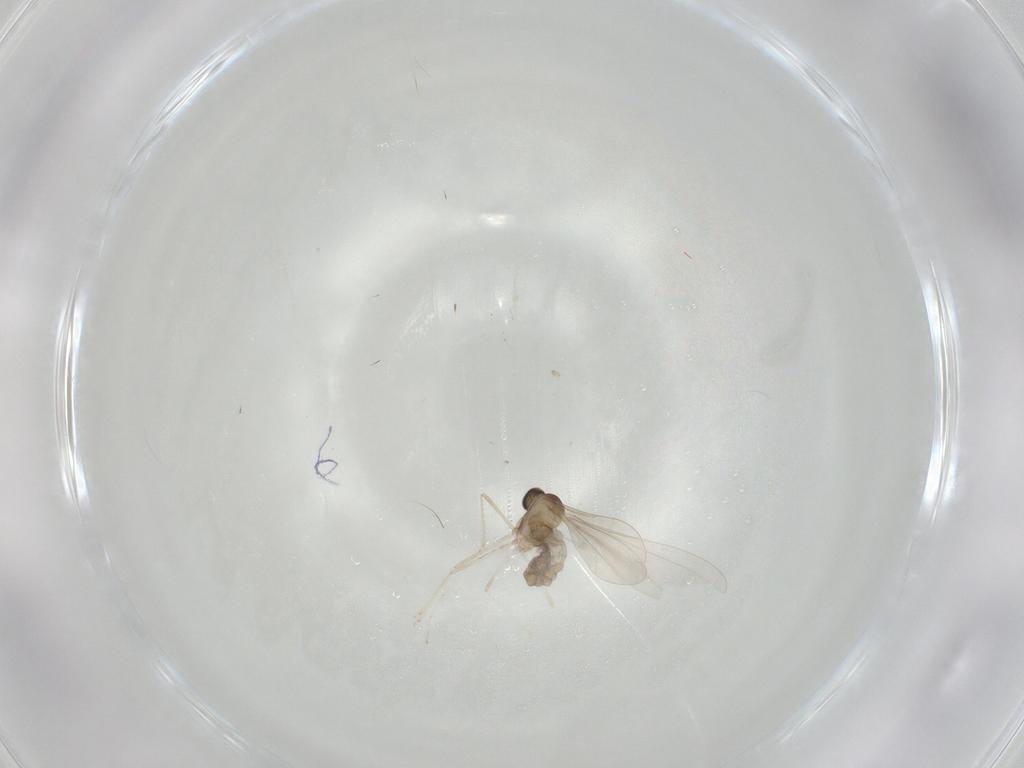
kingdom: Animalia
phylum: Arthropoda
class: Insecta
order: Diptera
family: Cecidomyiidae
